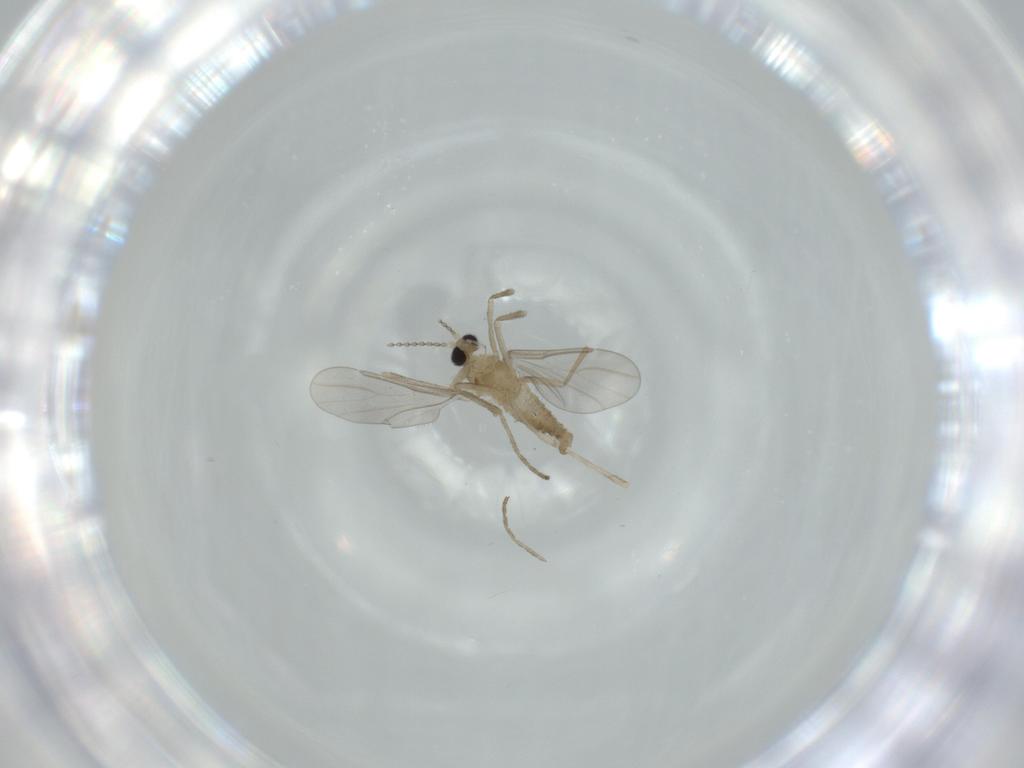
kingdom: Animalia
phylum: Arthropoda
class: Insecta
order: Diptera
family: Cecidomyiidae
